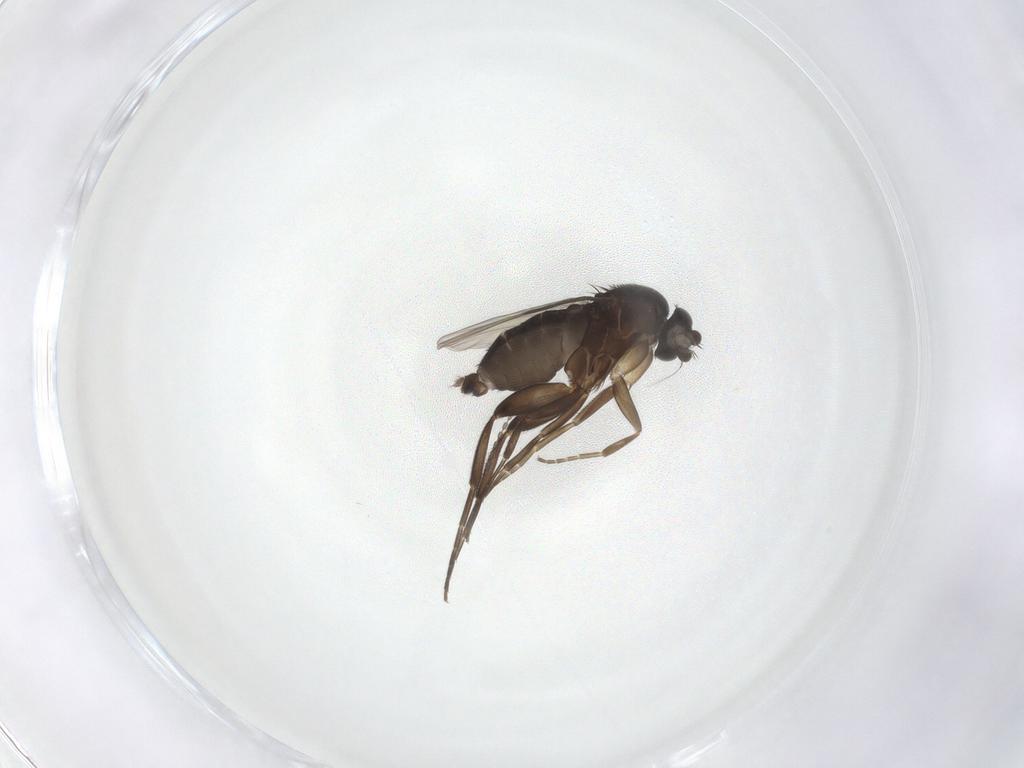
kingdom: Animalia
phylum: Arthropoda
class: Insecta
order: Diptera
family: Phoridae
